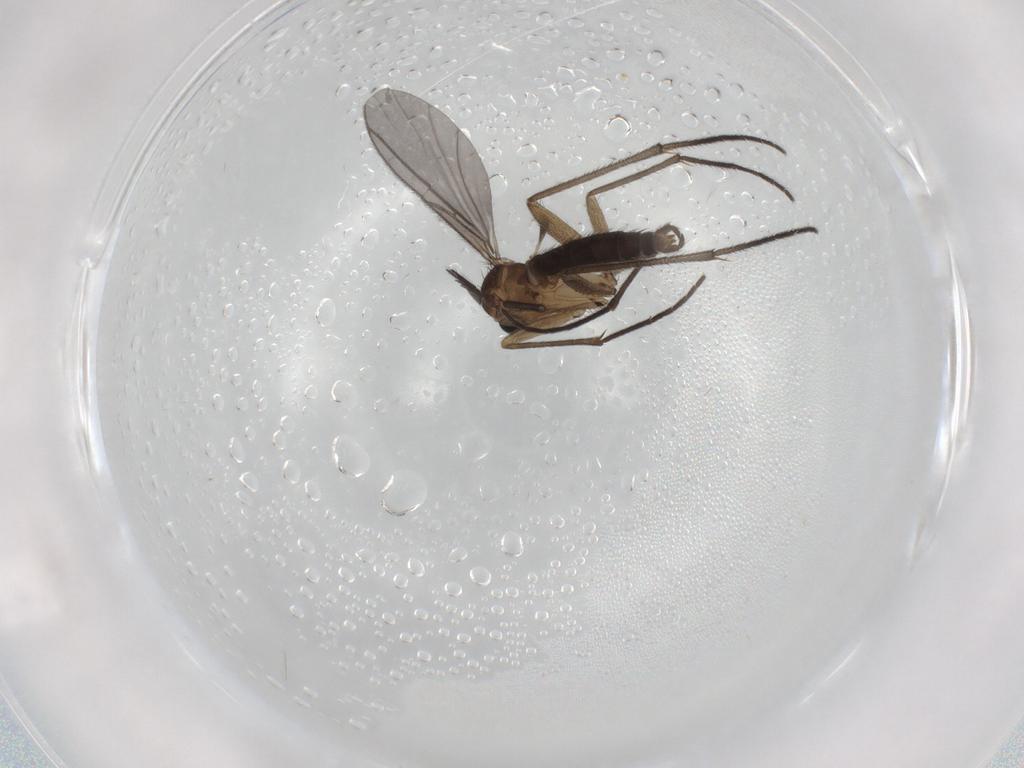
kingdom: Animalia
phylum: Arthropoda
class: Insecta
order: Diptera
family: Sciaridae
